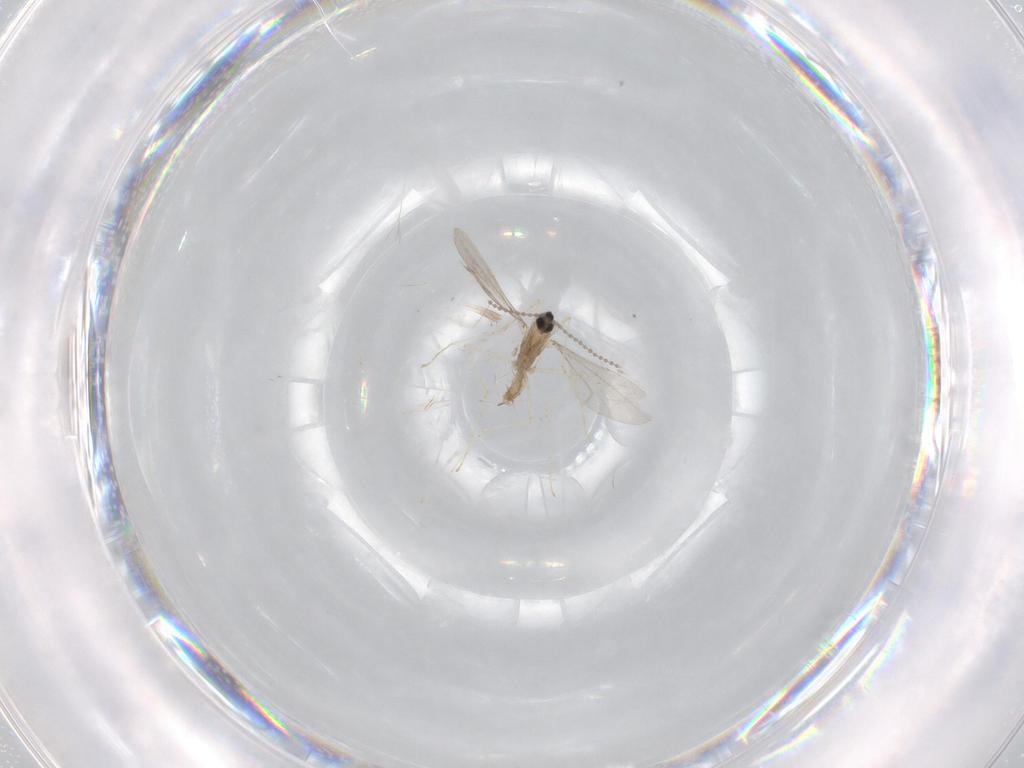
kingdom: Animalia
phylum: Arthropoda
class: Insecta
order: Diptera
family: Cecidomyiidae
